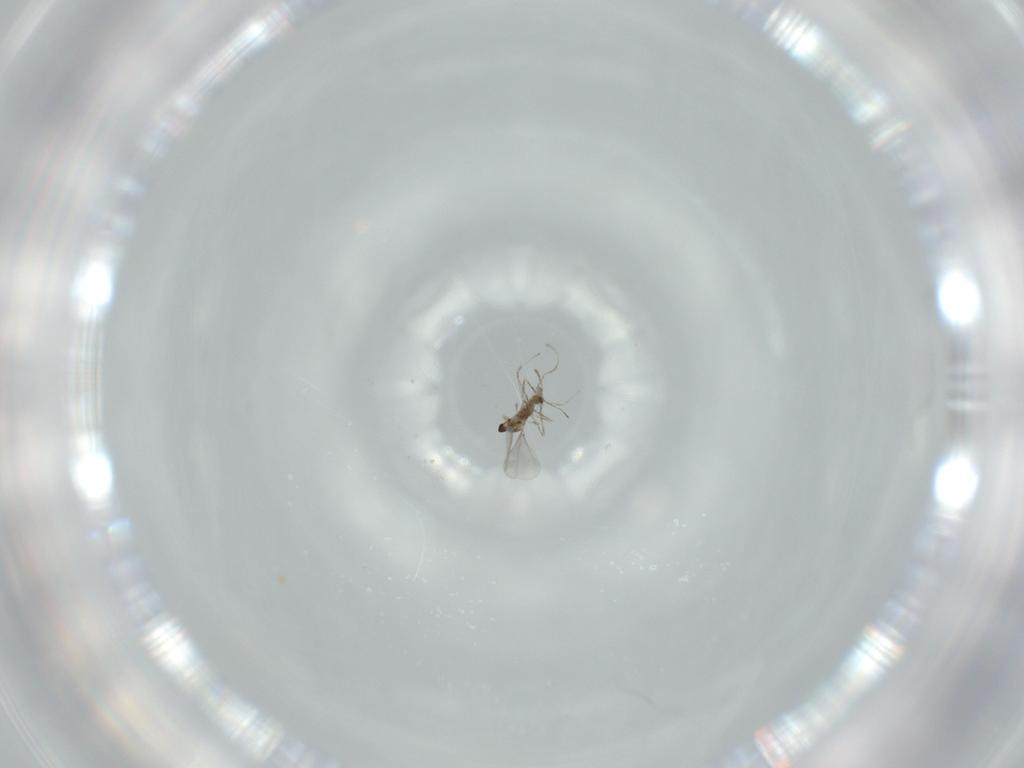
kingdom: Animalia
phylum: Arthropoda
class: Insecta
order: Diptera
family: Cecidomyiidae
